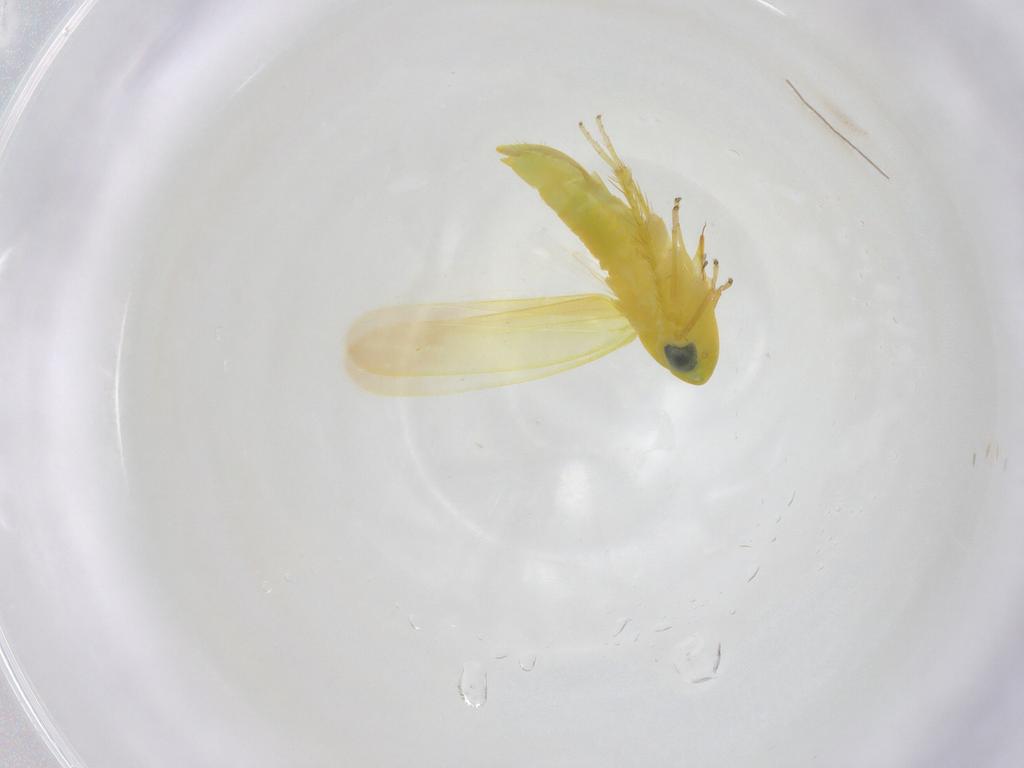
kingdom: Animalia
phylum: Arthropoda
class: Insecta
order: Hemiptera
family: Cicadellidae
